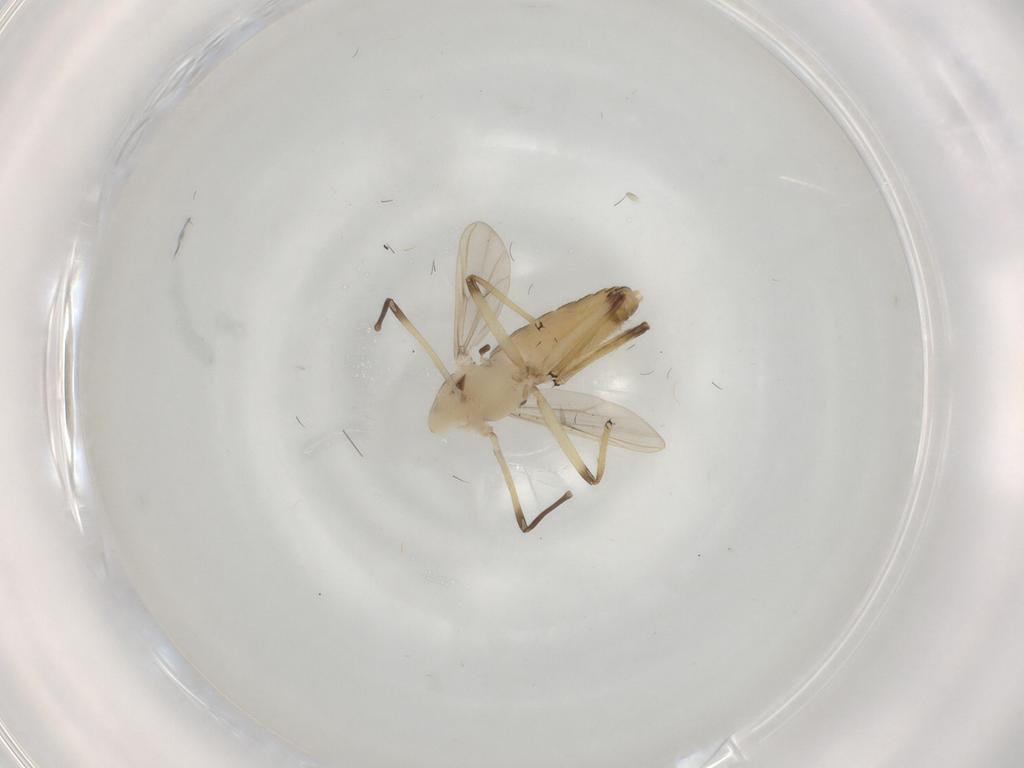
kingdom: Animalia
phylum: Arthropoda
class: Insecta
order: Diptera
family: Chironomidae
